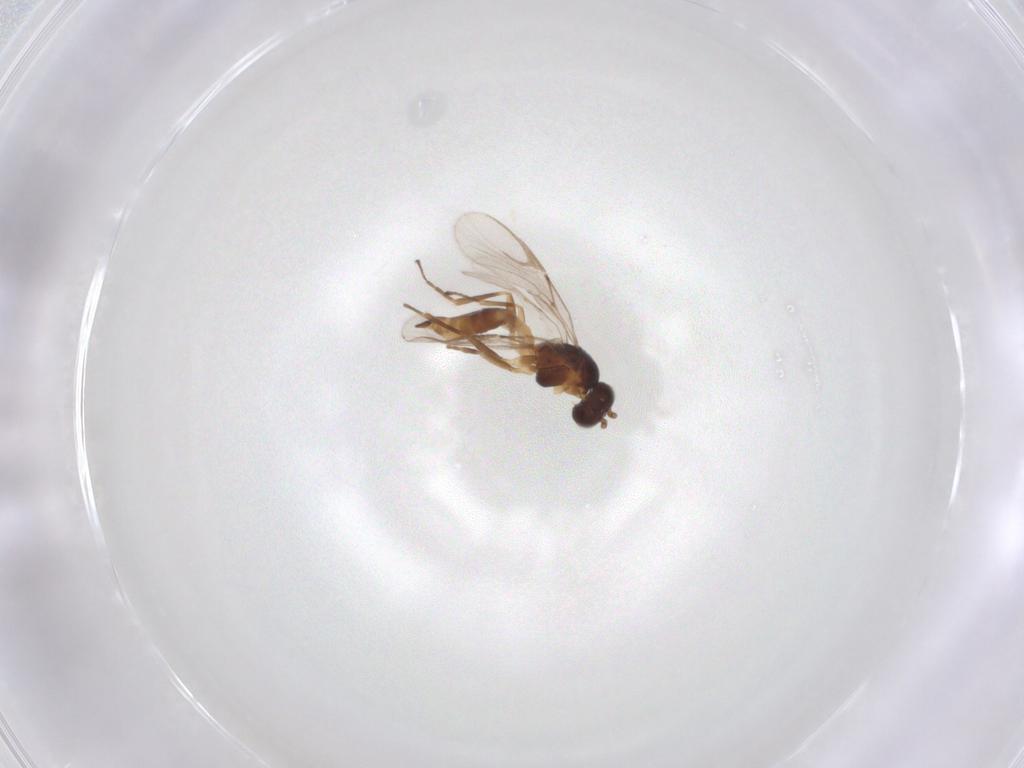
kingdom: Animalia
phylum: Arthropoda
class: Insecta
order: Hymenoptera
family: Braconidae
